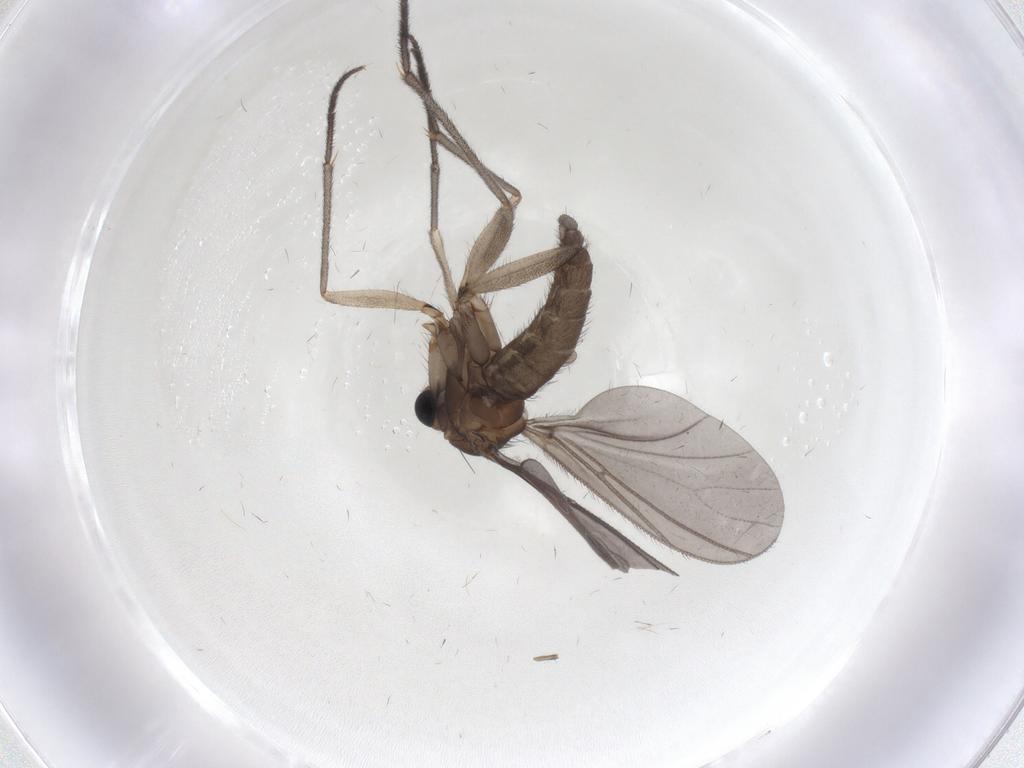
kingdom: Animalia
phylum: Arthropoda
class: Insecta
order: Diptera
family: Sciaridae
